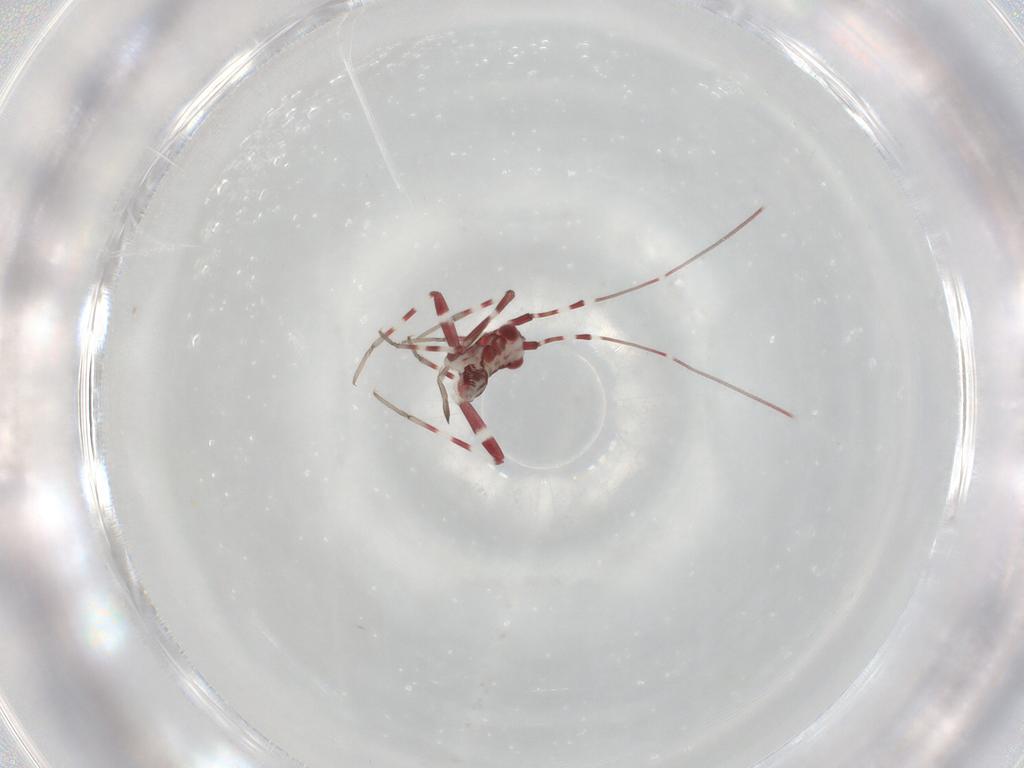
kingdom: Animalia
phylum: Arthropoda
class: Insecta
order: Hemiptera
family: Miridae
